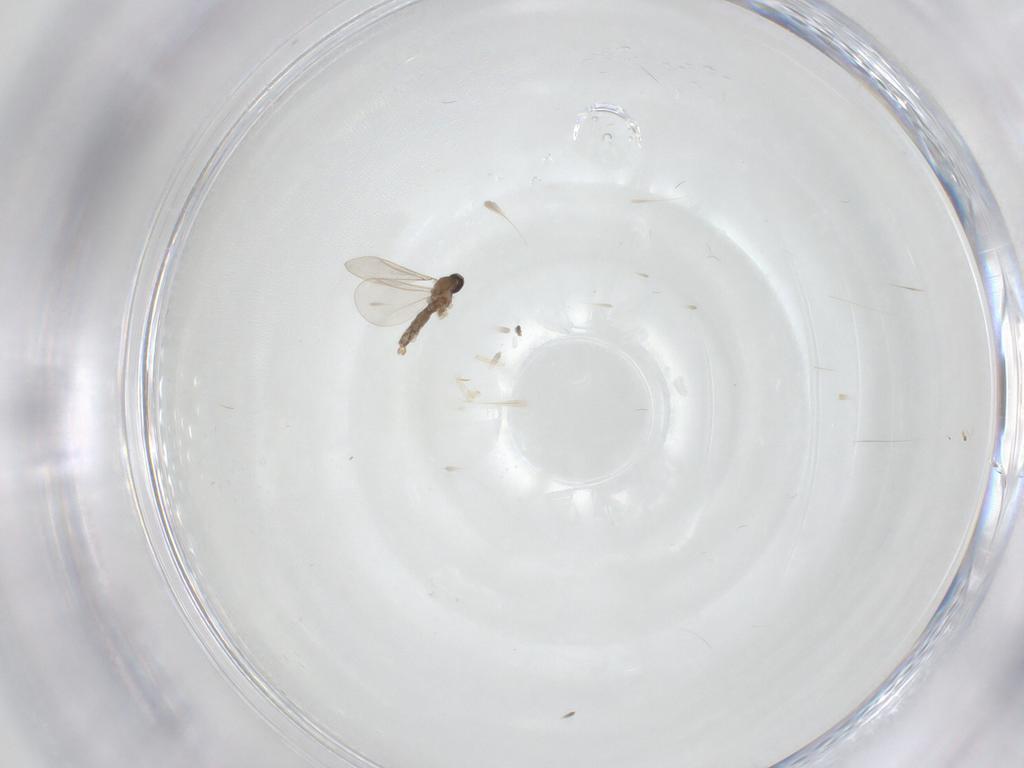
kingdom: Animalia
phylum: Arthropoda
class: Insecta
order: Diptera
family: Cecidomyiidae
